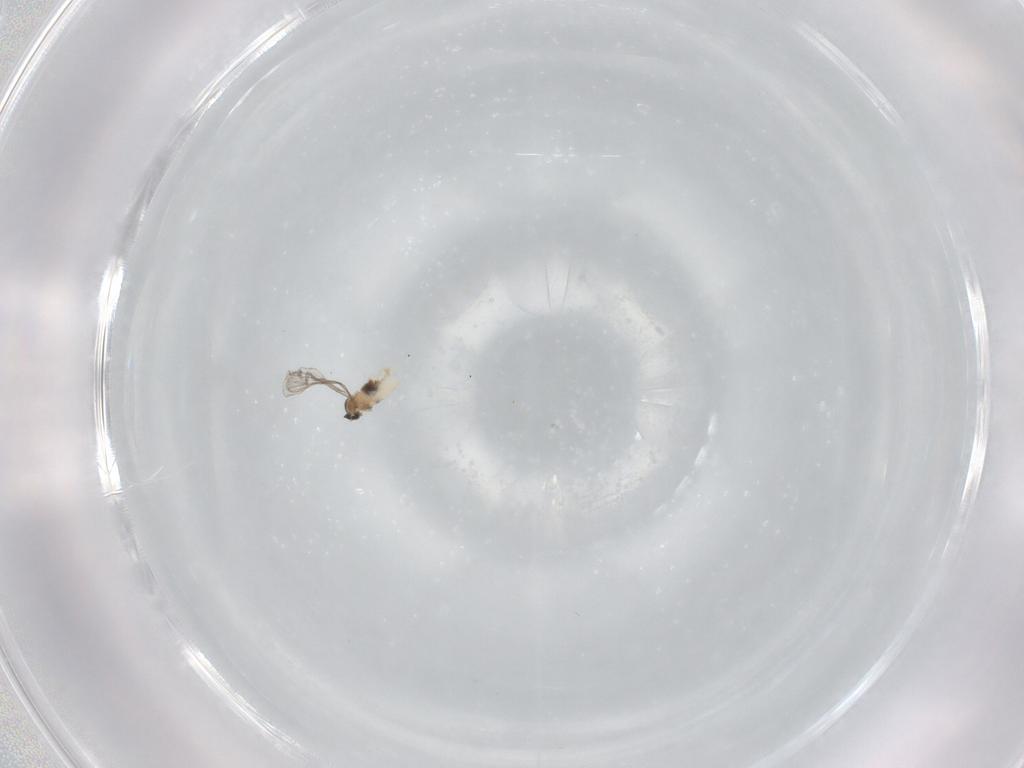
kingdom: Animalia
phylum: Arthropoda
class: Insecta
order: Diptera
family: Cecidomyiidae
